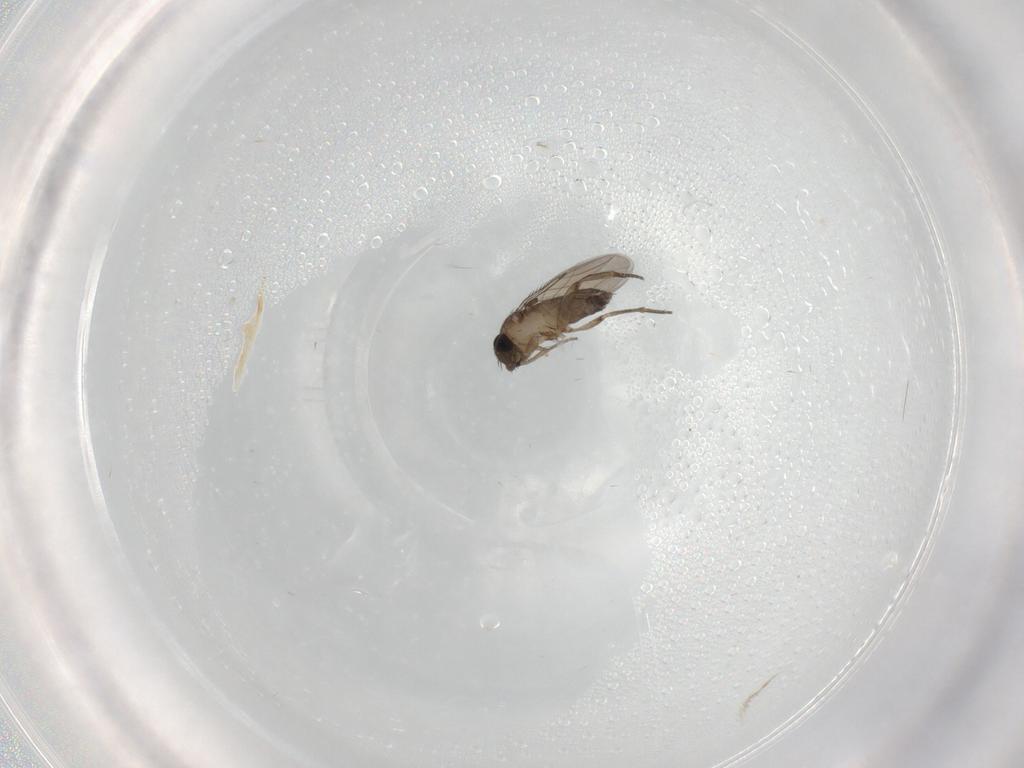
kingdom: Animalia
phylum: Arthropoda
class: Insecta
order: Diptera
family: Phoridae
